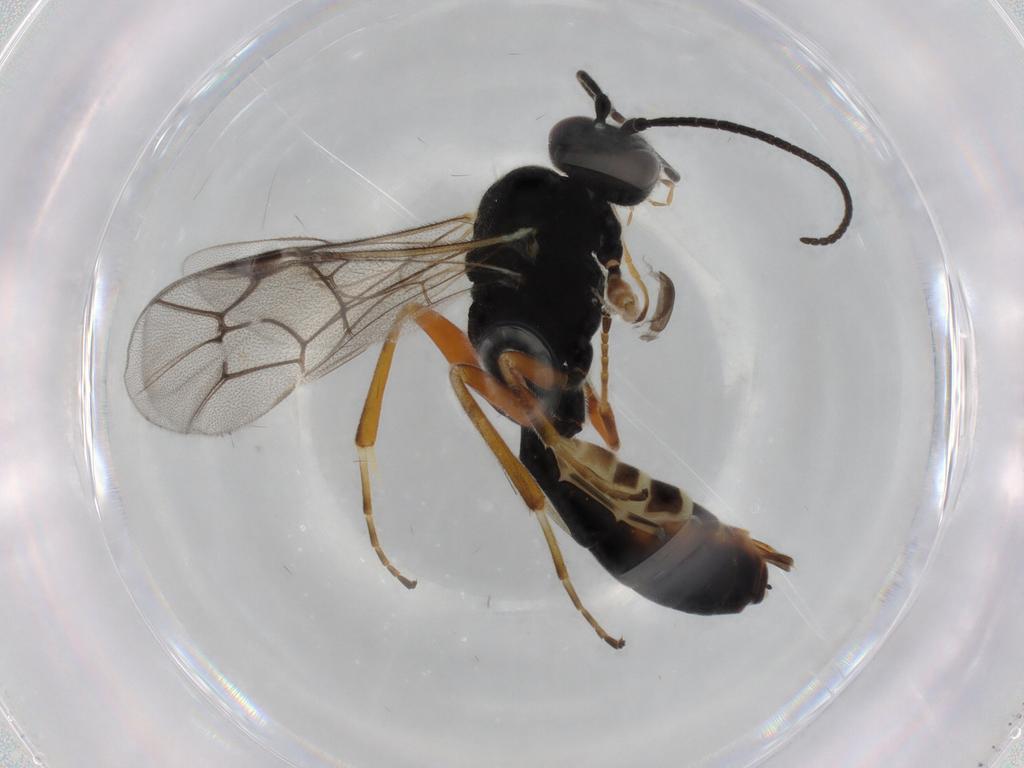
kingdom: Animalia
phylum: Arthropoda
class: Insecta
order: Hymenoptera
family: Ichneumonidae
